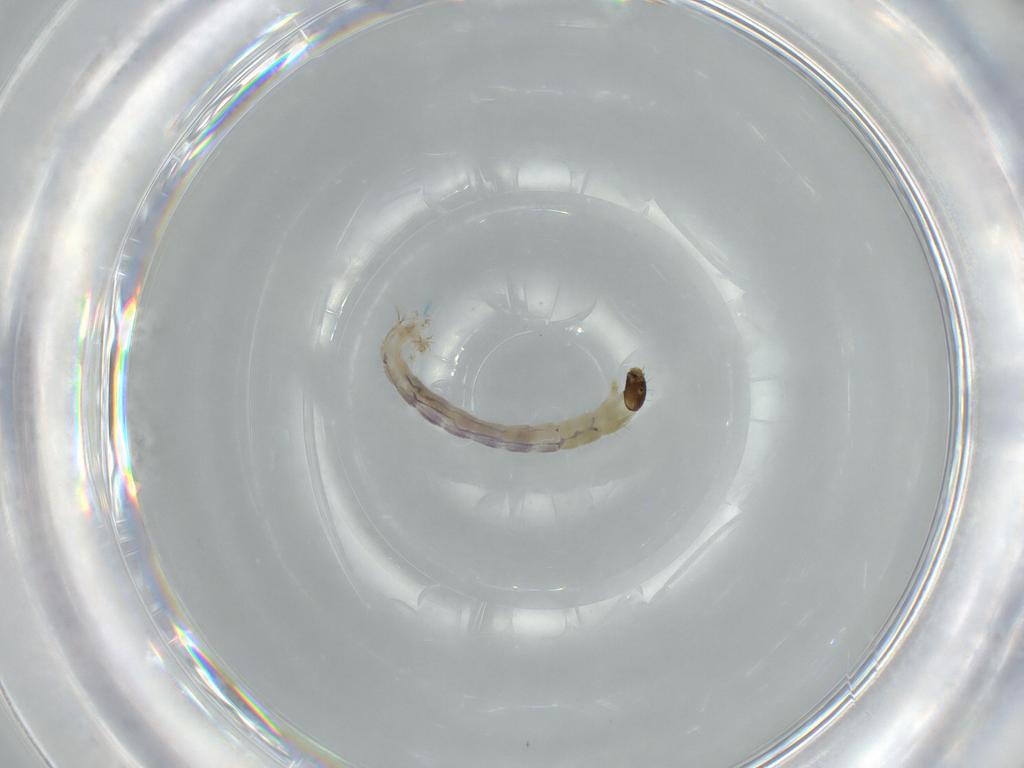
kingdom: Animalia
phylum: Arthropoda
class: Insecta
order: Diptera
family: Chironomidae
